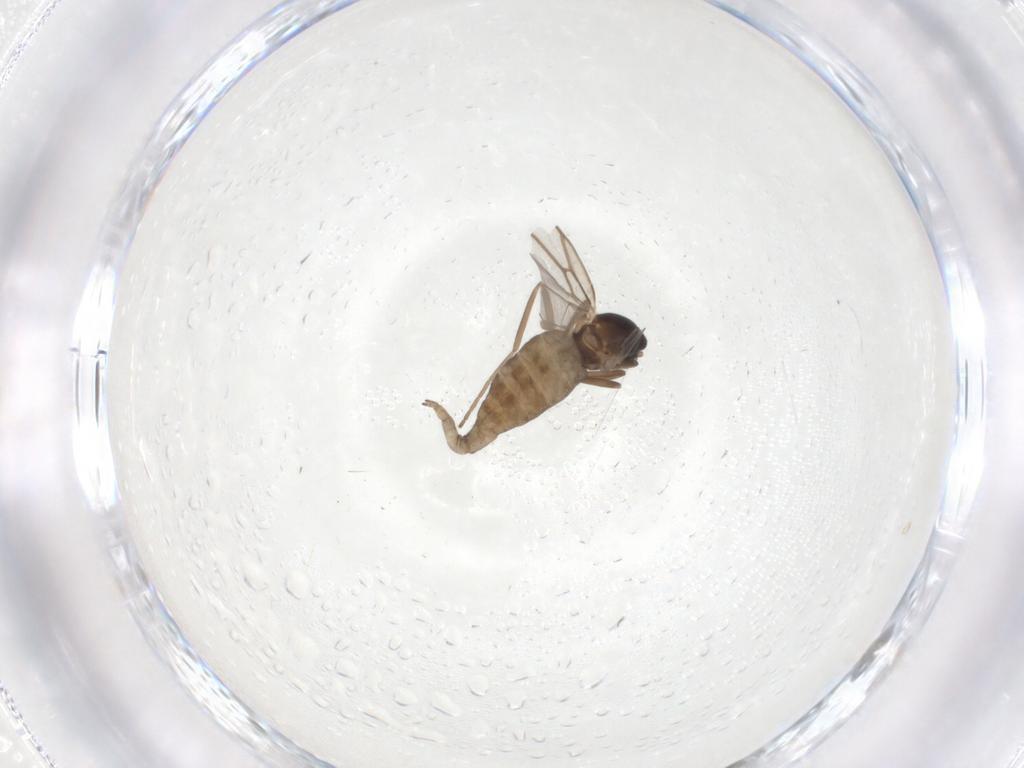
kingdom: Animalia
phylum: Arthropoda
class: Insecta
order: Diptera
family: Cecidomyiidae
